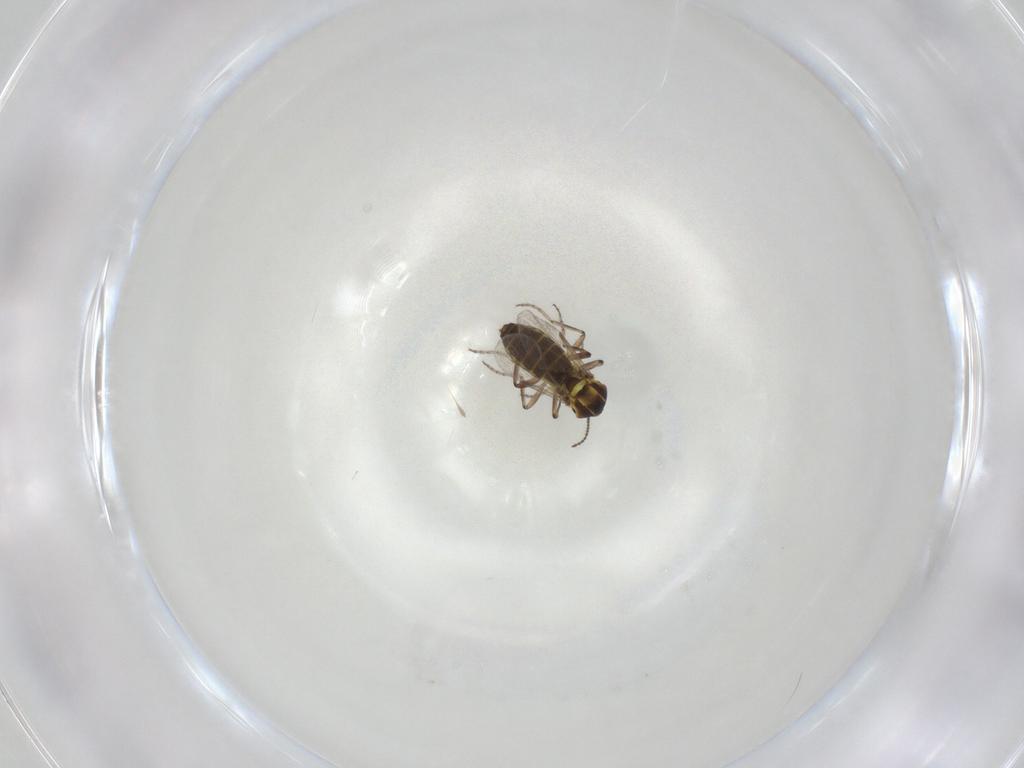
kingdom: Animalia
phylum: Arthropoda
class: Insecta
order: Diptera
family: Ceratopogonidae
